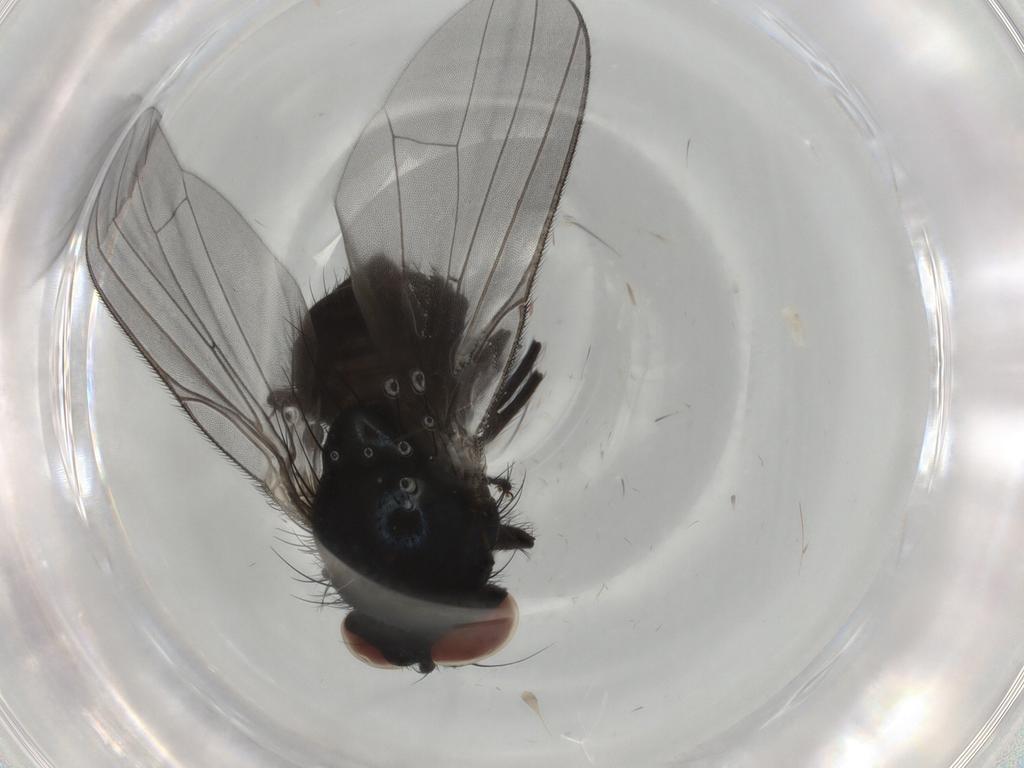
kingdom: Animalia
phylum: Arthropoda
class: Insecta
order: Diptera
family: Lonchaeidae
